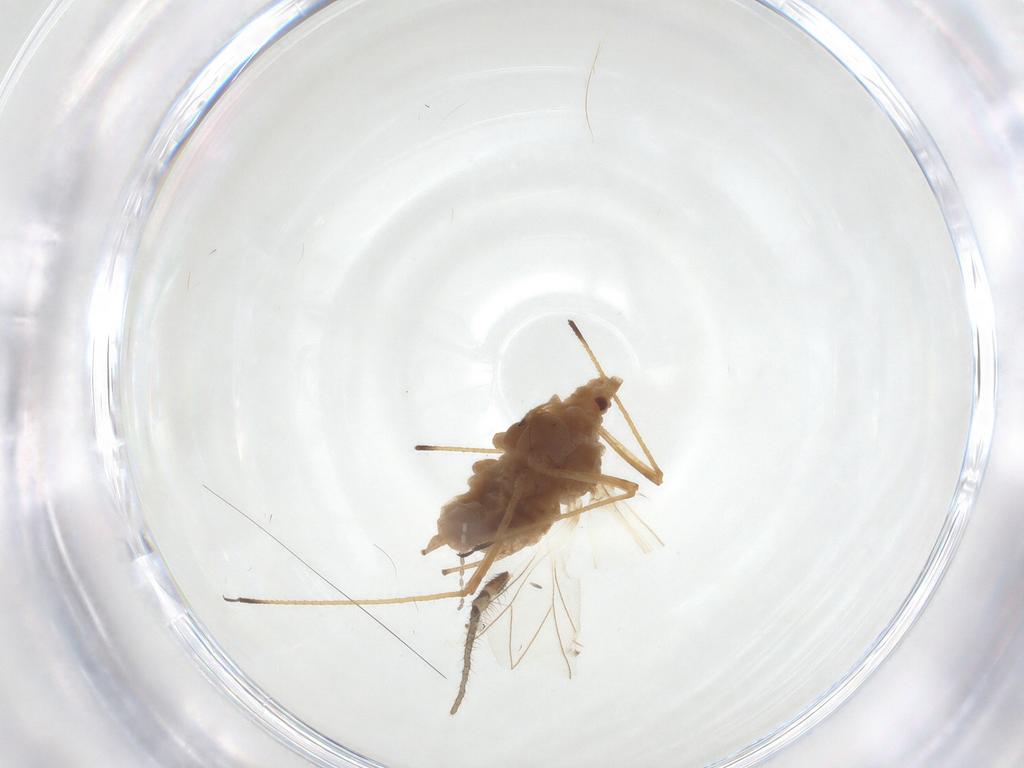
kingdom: Animalia
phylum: Arthropoda
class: Insecta
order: Hemiptera
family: Aphididae
